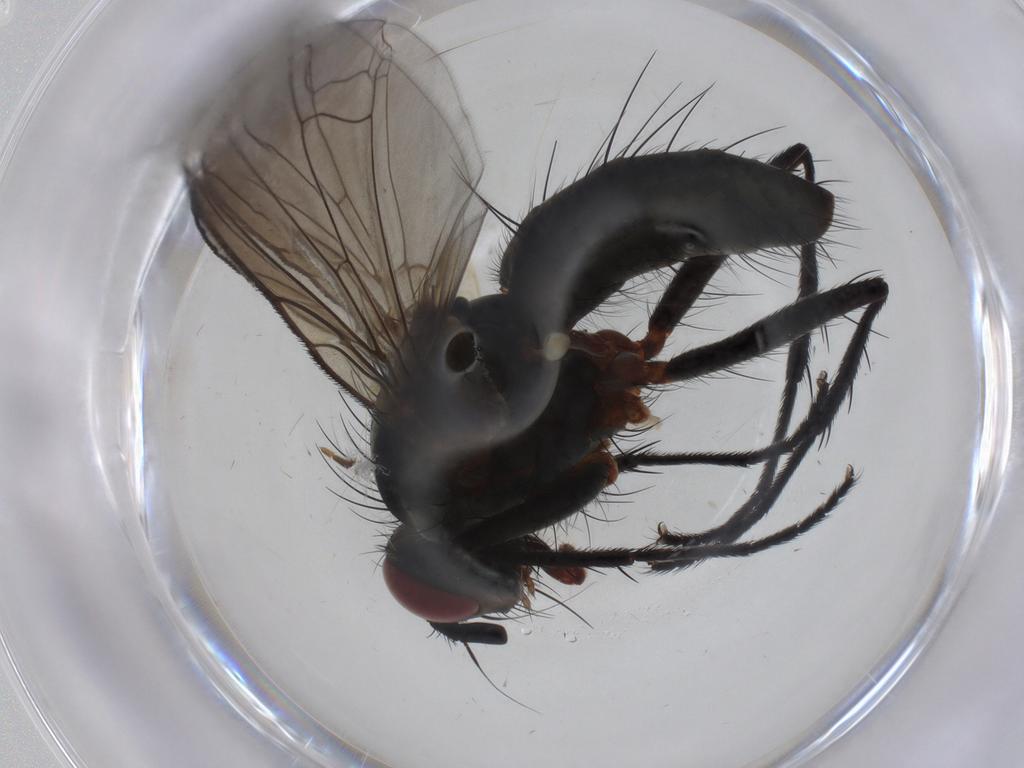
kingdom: Animalia
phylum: Arthropoda
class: Insecta
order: Diptera
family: Tachinidae
